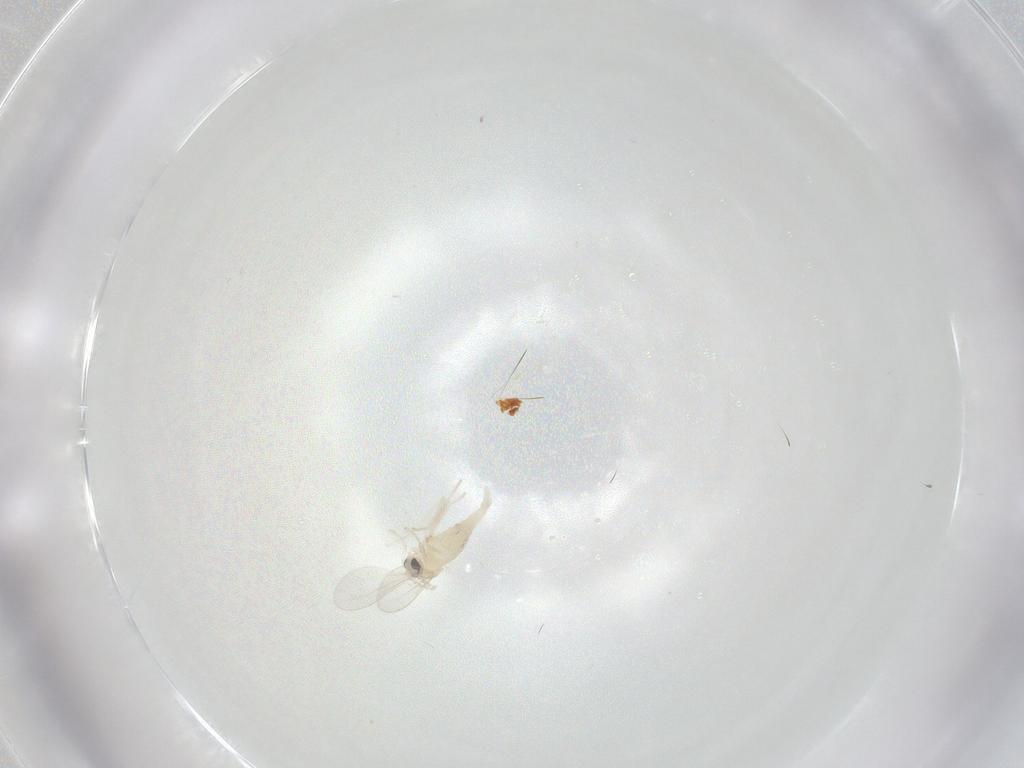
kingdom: Animalia
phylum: Arthropoda
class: Insecta
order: Diptera
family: Cecidomyiidae
